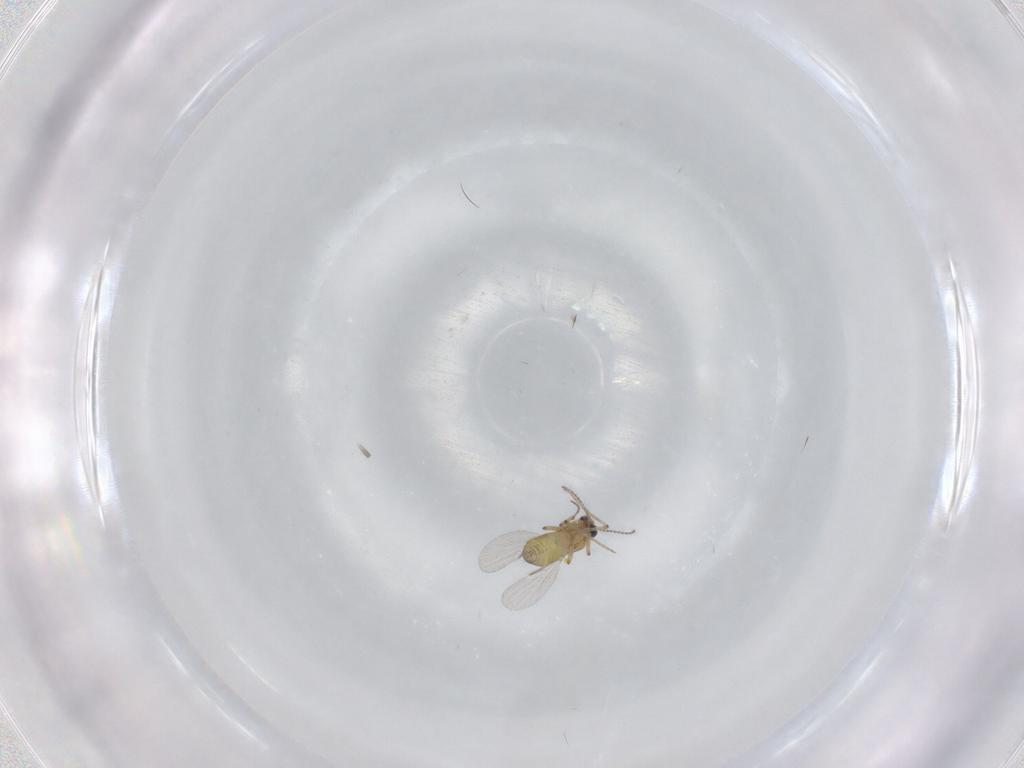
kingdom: Animalia
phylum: Arthropoda
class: Insecta
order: Diptera
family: Ceratopogonidae
